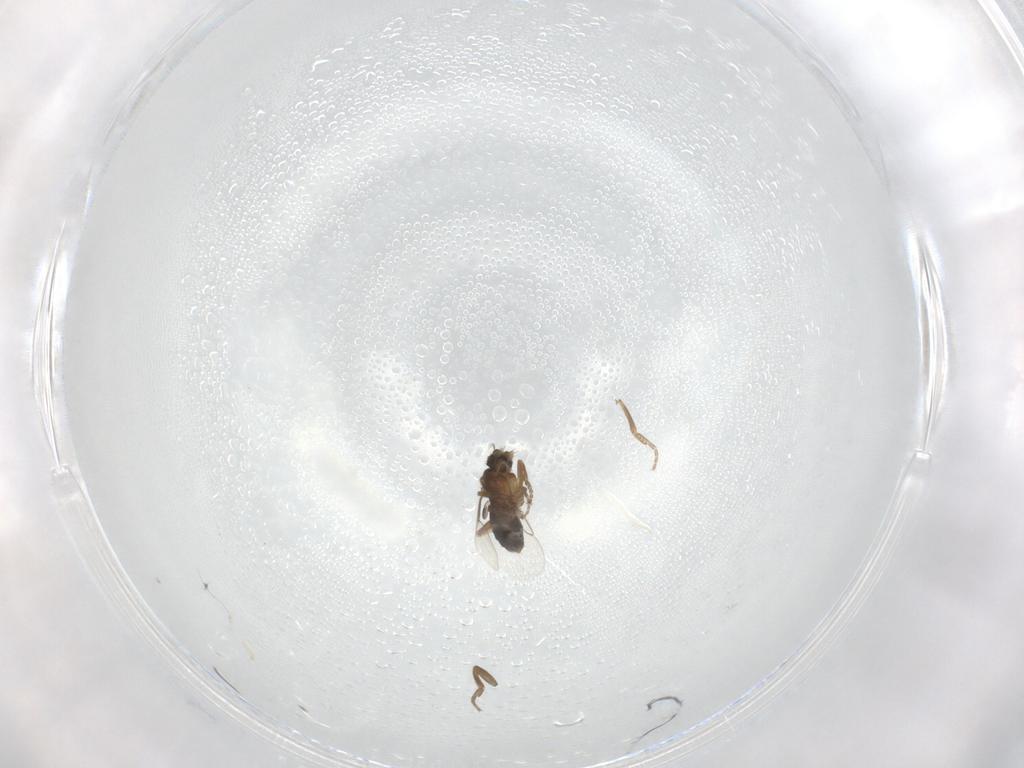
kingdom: Animalia
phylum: Arthropoda
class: Insecta
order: Diptera
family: Phoridae
